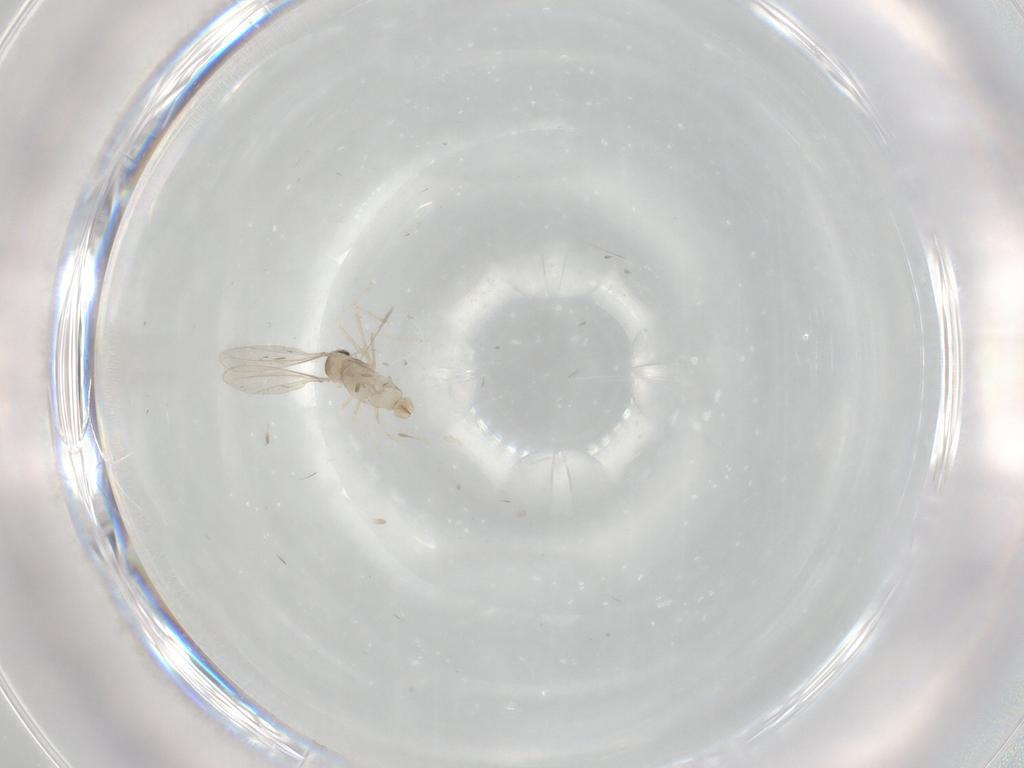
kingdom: Animalia
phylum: Arthropoda
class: Insecta
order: Diptera
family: Cecidomyiidae
